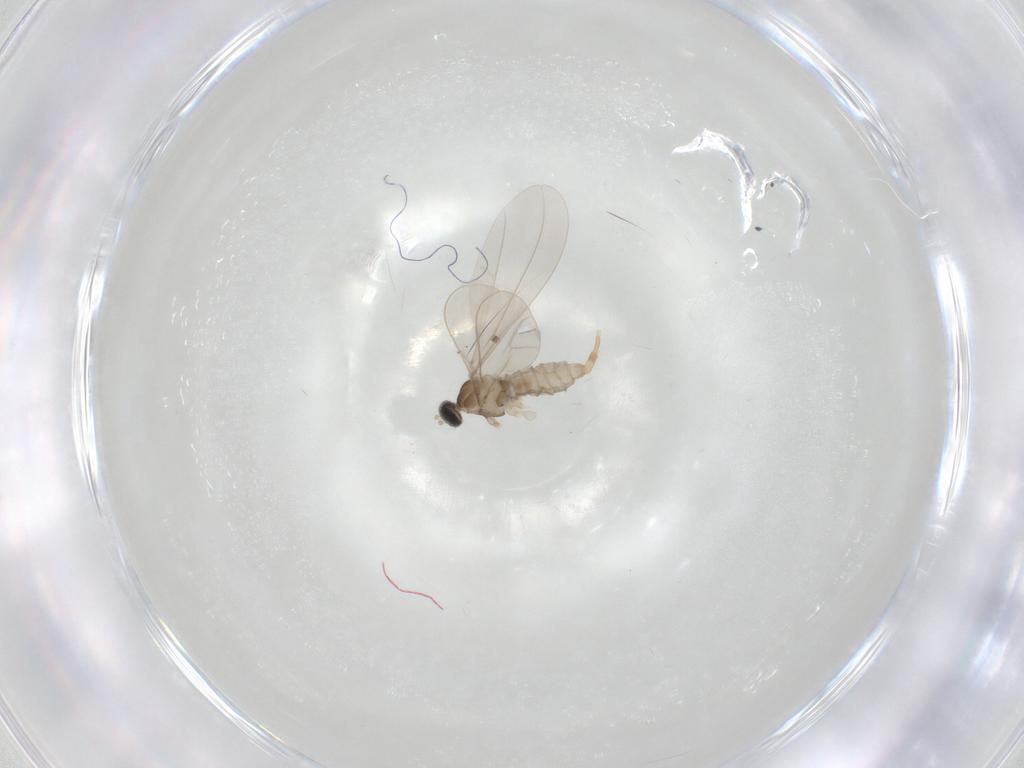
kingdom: Animalia
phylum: Arthropoda
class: Insecta
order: Diptera
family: Cecidomyiidae
